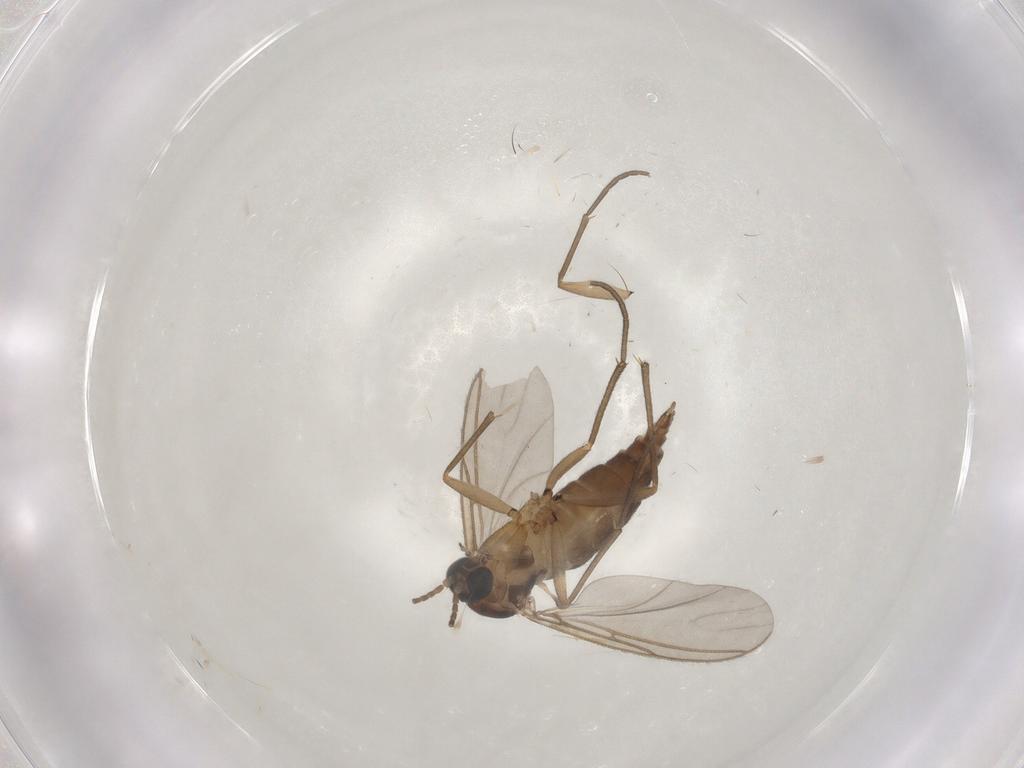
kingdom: Animalia
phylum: Arthropoda
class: Insecta
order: Diptera
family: Sciaridae
